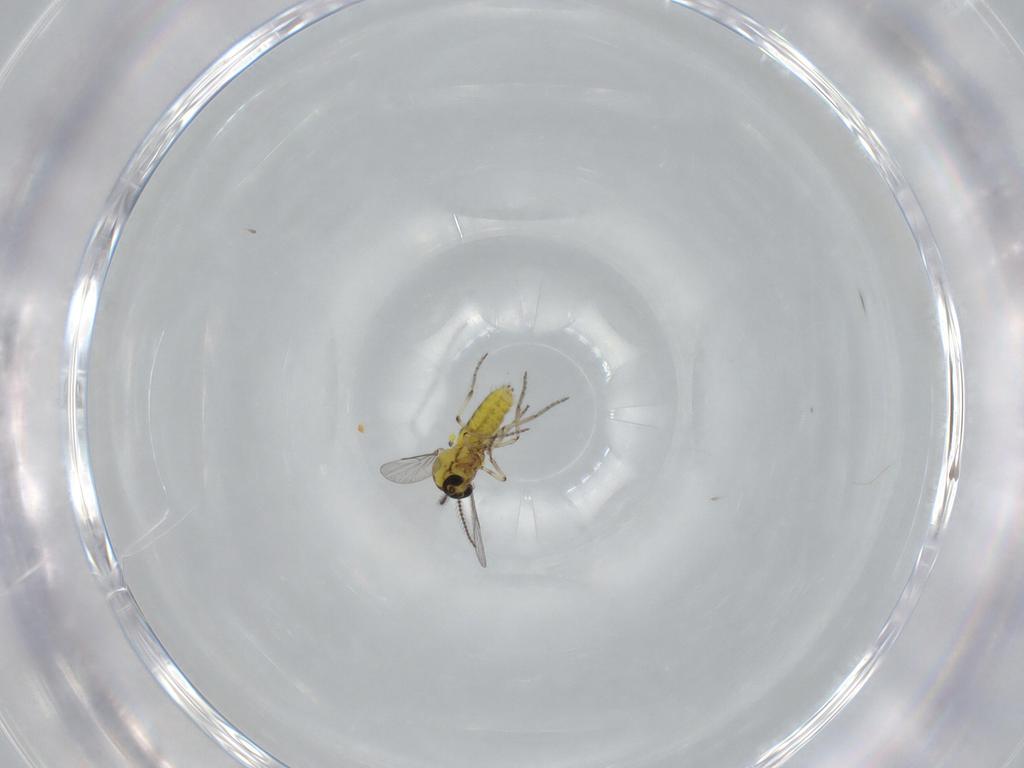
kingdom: Animalia
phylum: Arthropoda
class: Insecta
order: Diptera
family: Ceratopogonidae
